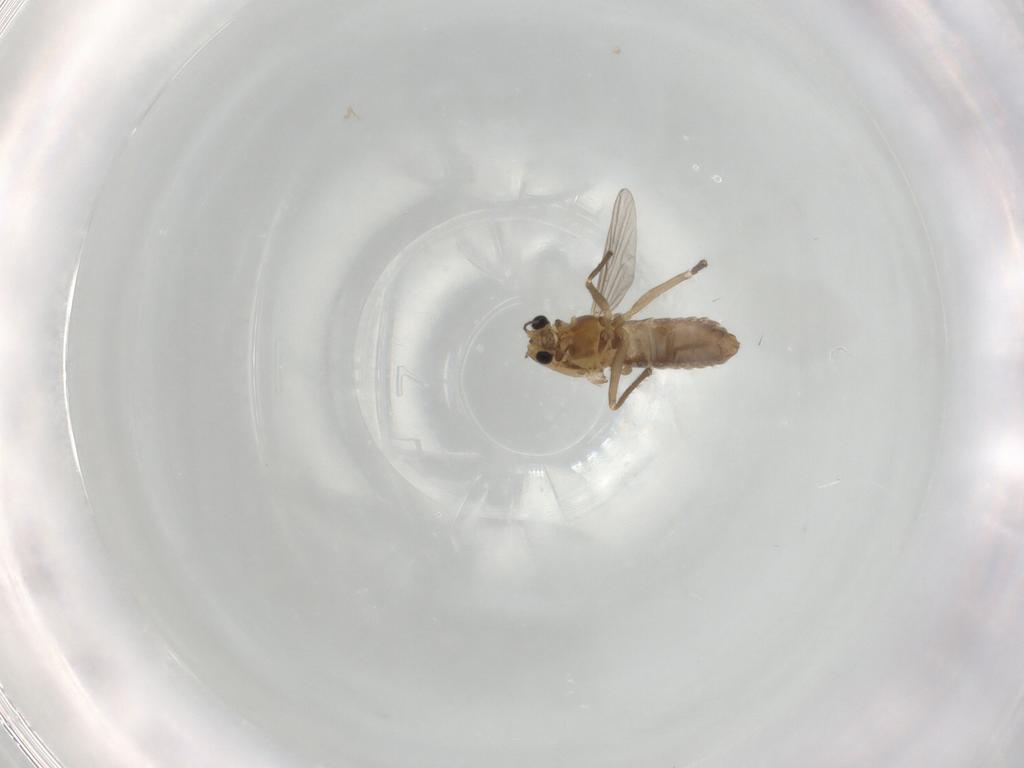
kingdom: Animalia
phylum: Arthropoda
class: Insecta
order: Diptera
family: Chironomidae
